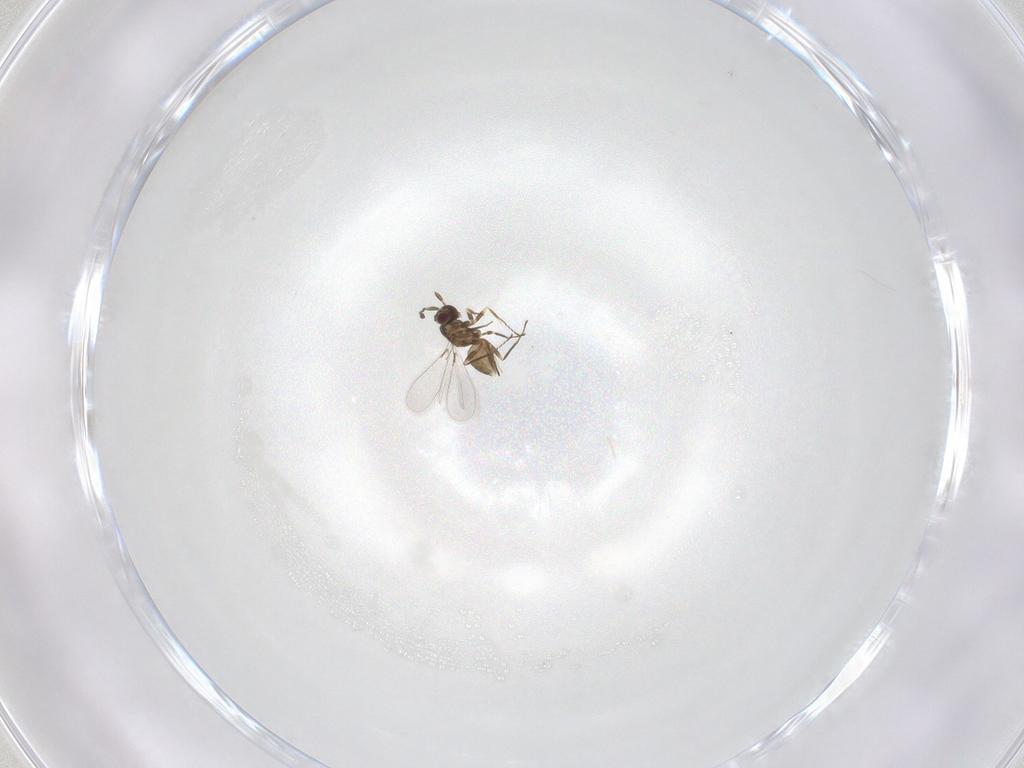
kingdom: Animalia
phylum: Arthropoda
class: Insecta
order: Hymenoptera
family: Mymaridae
